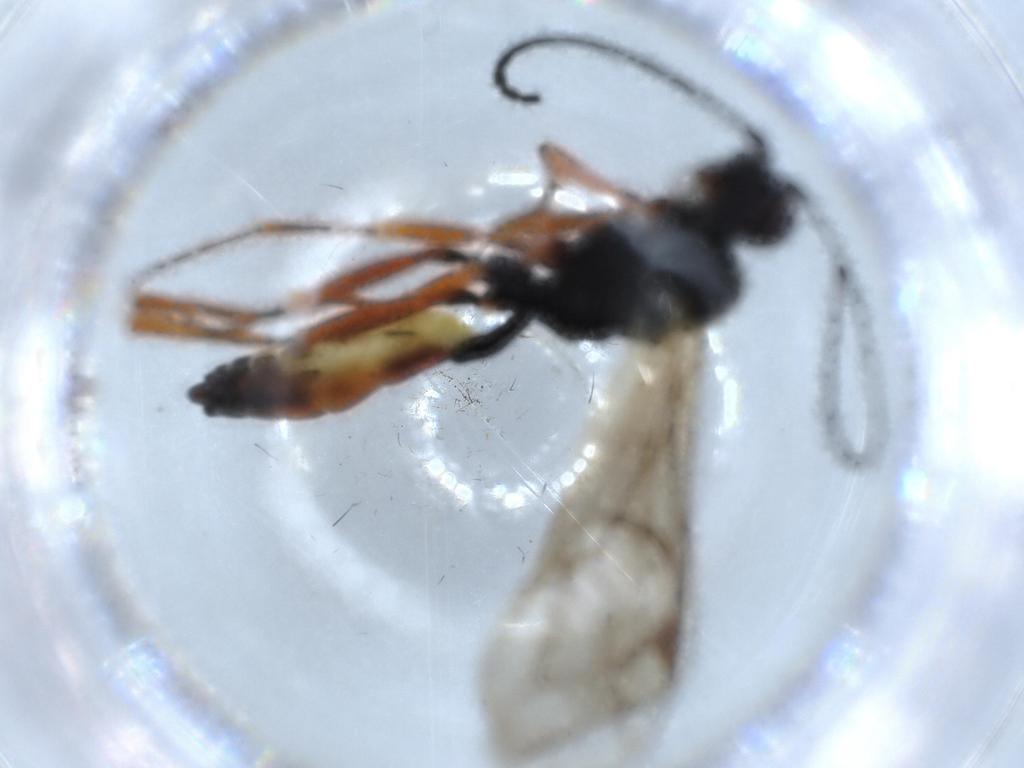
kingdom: Animalia
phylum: Arthropoda
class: Insecta
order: Hymenoptera
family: Ichneumonidae
